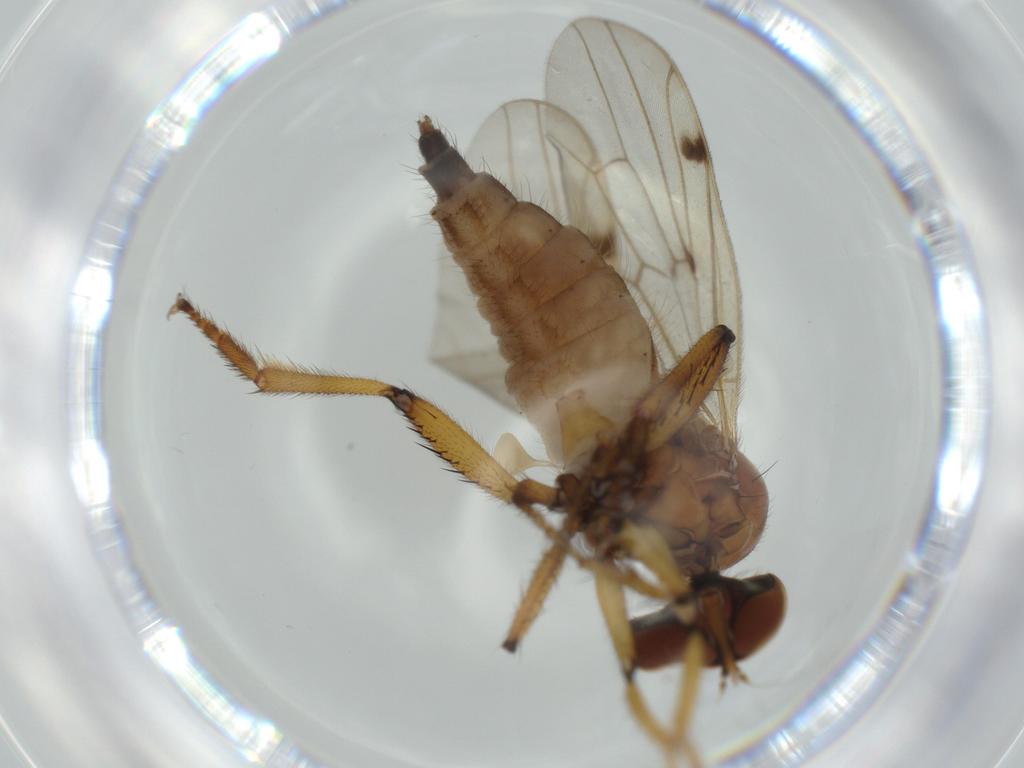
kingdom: Animalia
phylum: Arthropoda
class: Insecta
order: Diptera
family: Hybotidae
